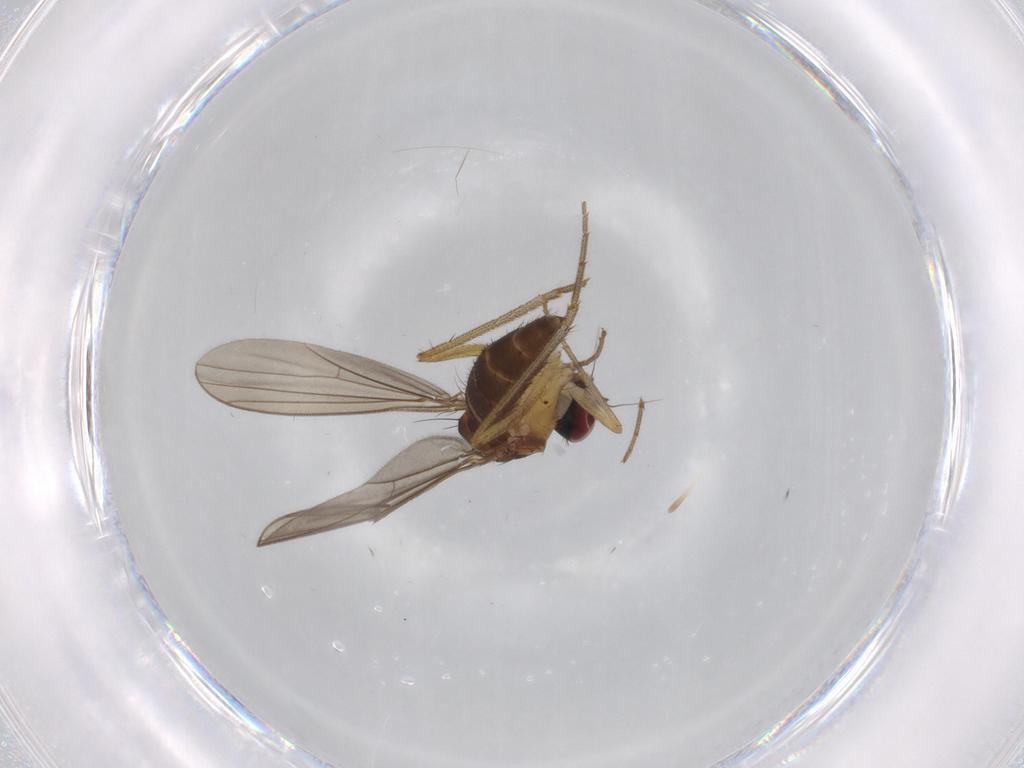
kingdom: Animalia
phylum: Arthropoda
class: Insecta
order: Diptera
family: Dolichopodidae
